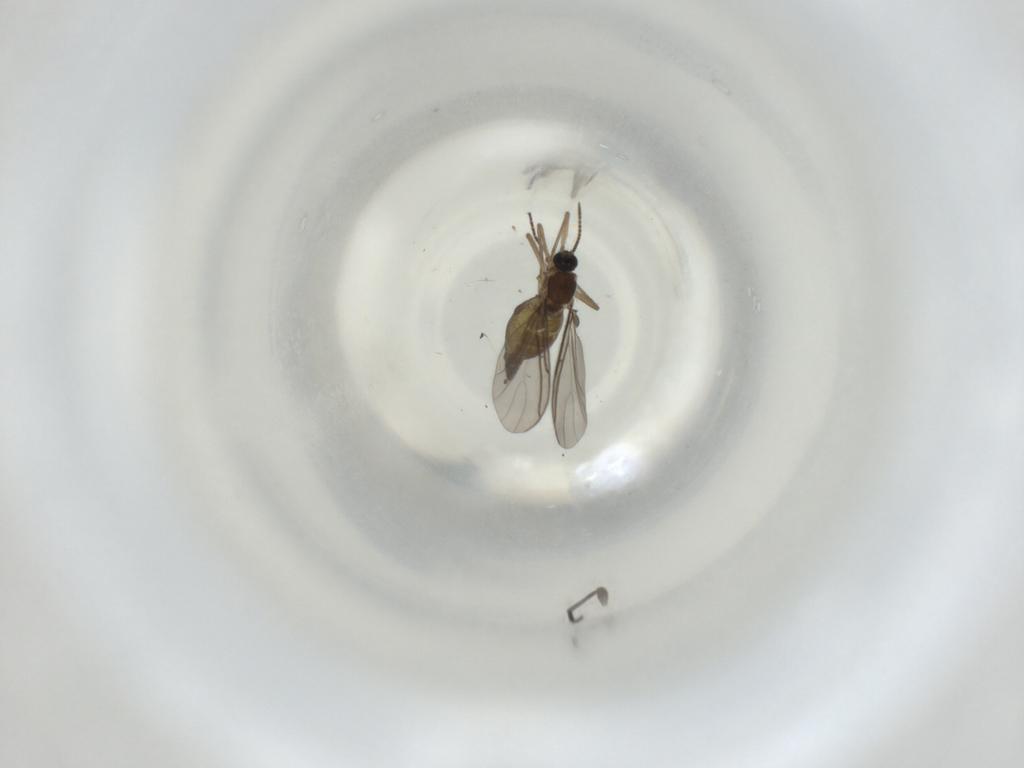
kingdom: Animalia
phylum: Arthropoda
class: Insecta
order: Diptera
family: Sciaridae
